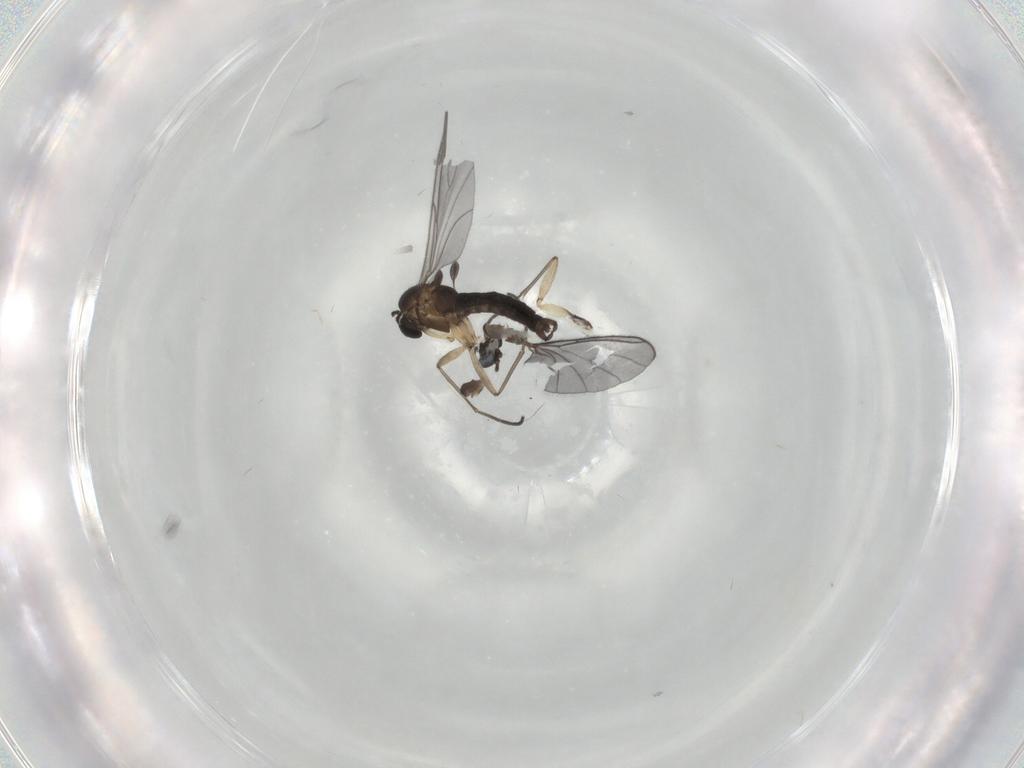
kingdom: Animalia
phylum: Arthropoda
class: Insecta
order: Diptera
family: Sciaridae
